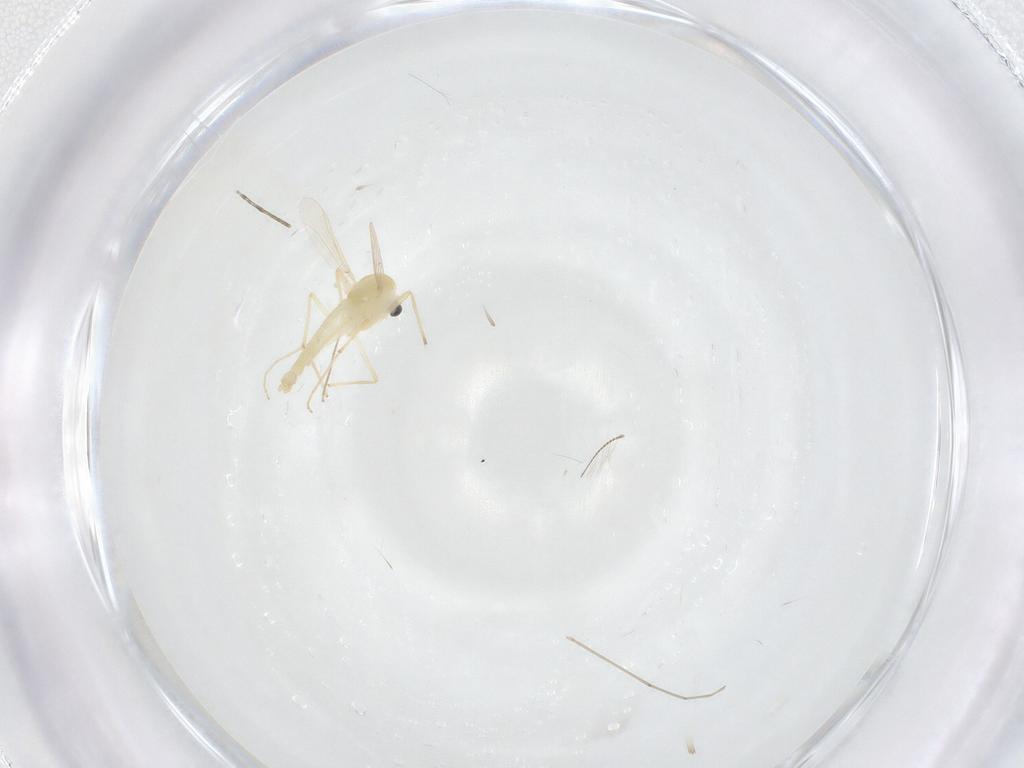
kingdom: Animalia
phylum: Arthropoda
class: Insecta
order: Diptera
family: Chironomidae
